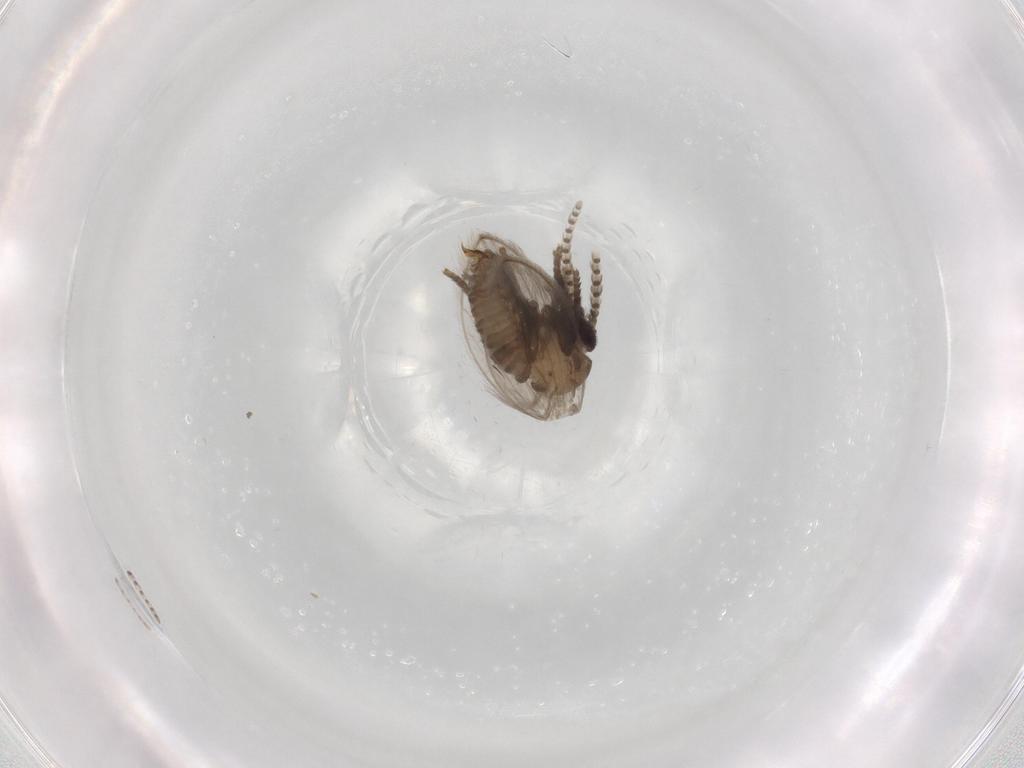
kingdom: Animalia
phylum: Arthropoda
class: Insecta
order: Diptera
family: Psychodidae
